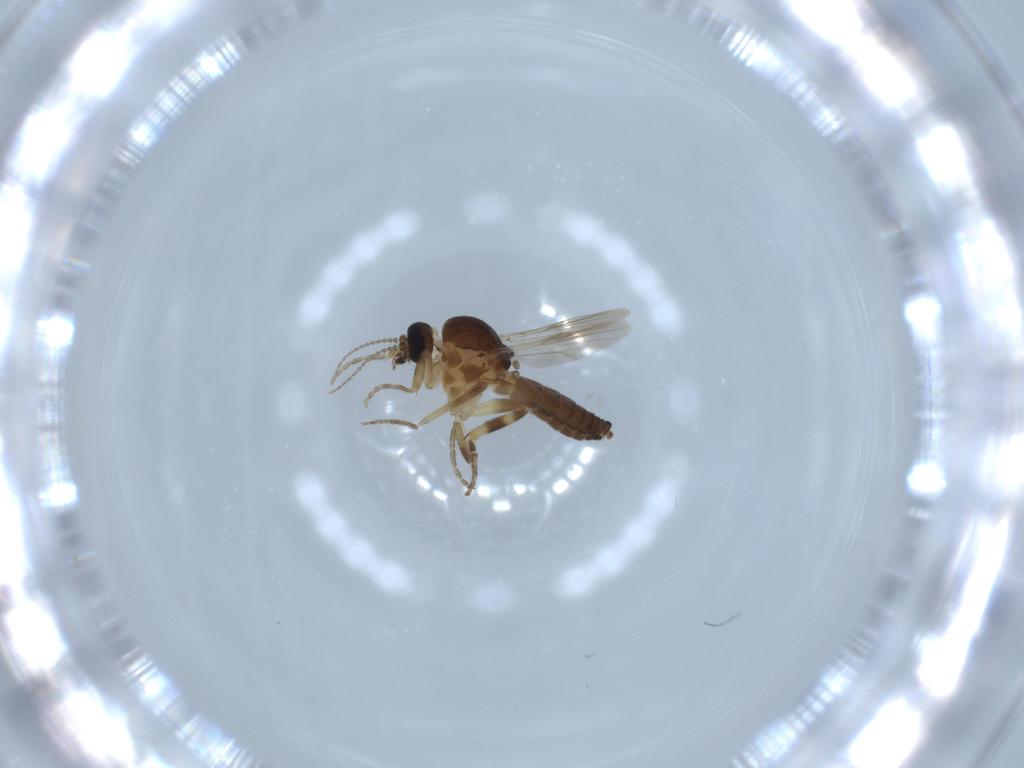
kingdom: Animalia
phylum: Arthropoda
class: Insecta
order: Diptera
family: Ceratopogonidae
